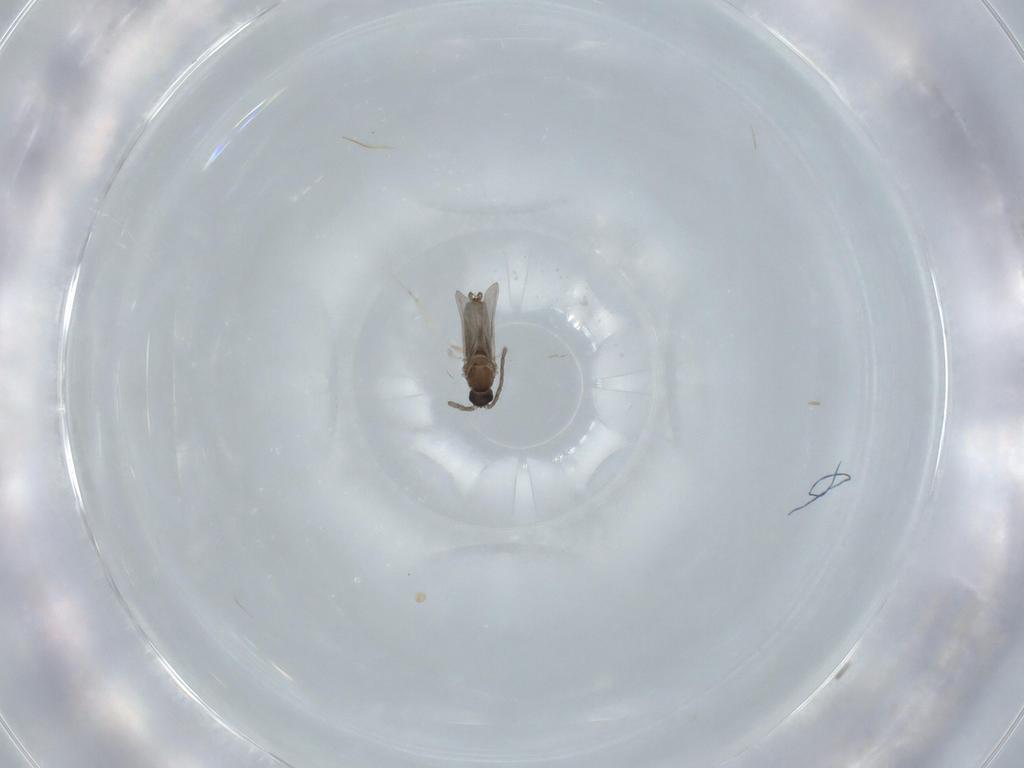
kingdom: Animalia
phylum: Arthropoda
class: Insecta
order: Diptera
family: Cecidomyiidae
